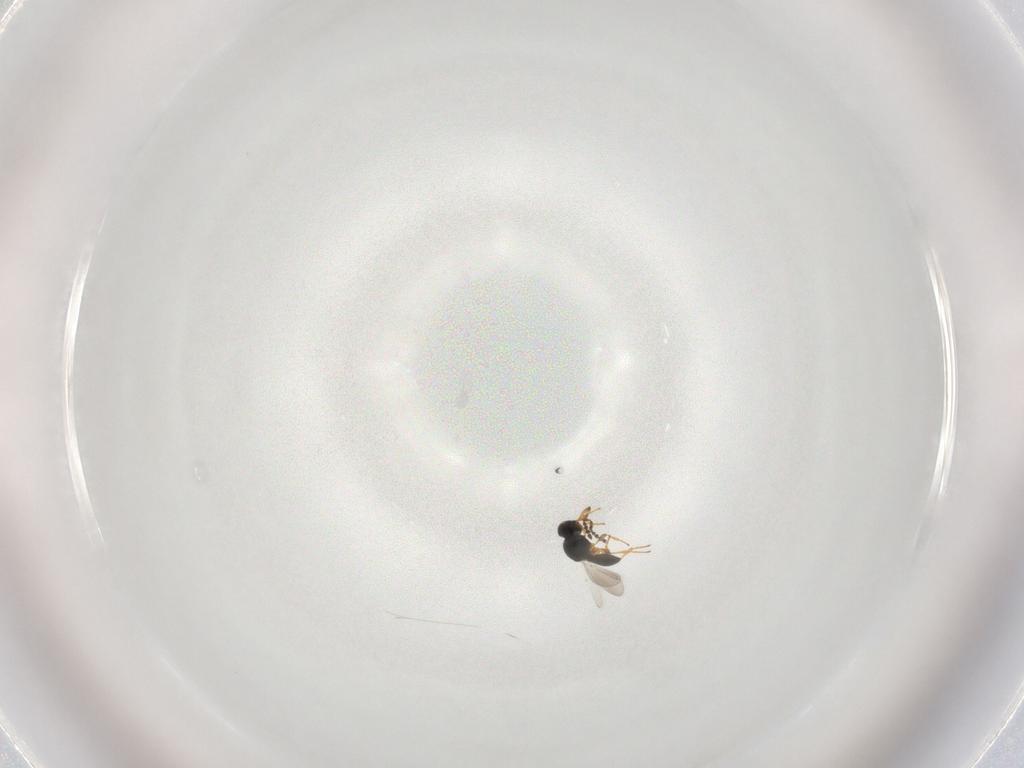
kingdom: Animalia
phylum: Arthropoda
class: Insecta
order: Hymenoptera
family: Platygastridae
